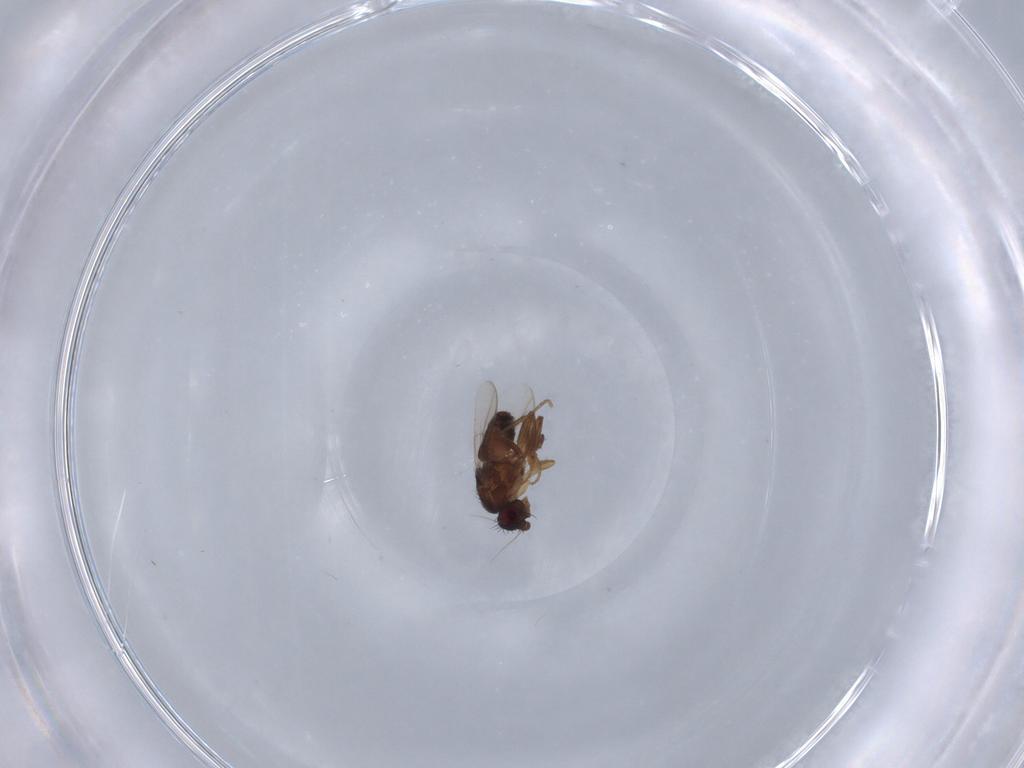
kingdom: Animalia
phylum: Arthropoda
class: Insecta
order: Diptera
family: Sphaeroceridae
